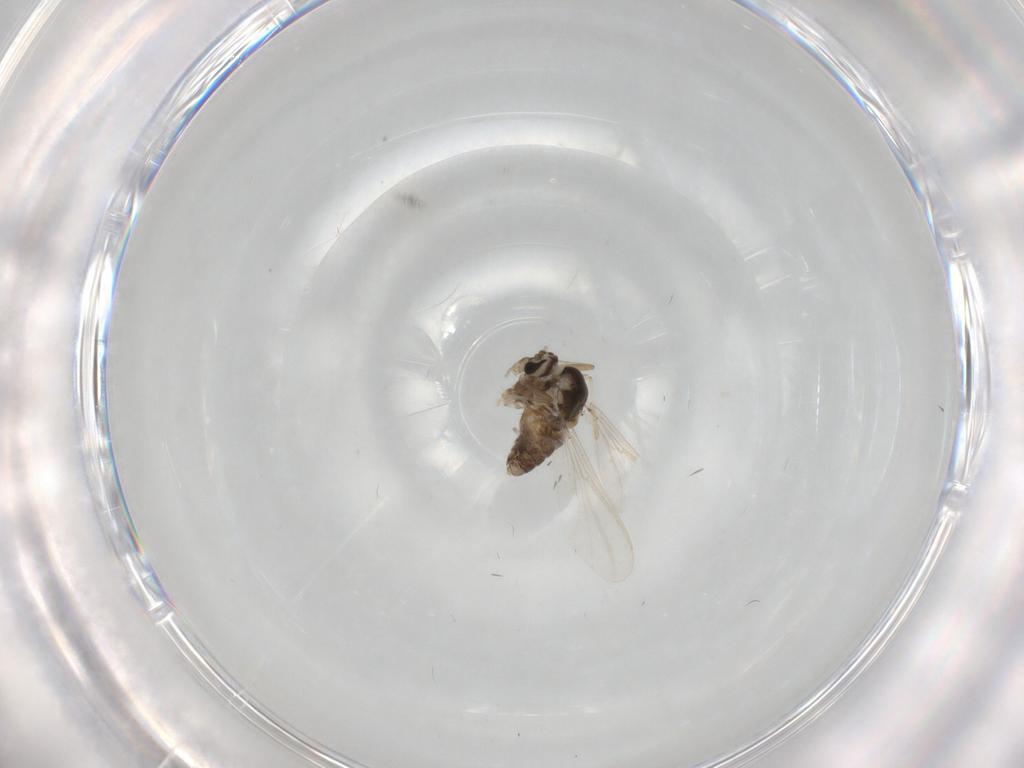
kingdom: Animalia
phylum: Arthropoda
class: Insecta
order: Diptera
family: Chironomidae
